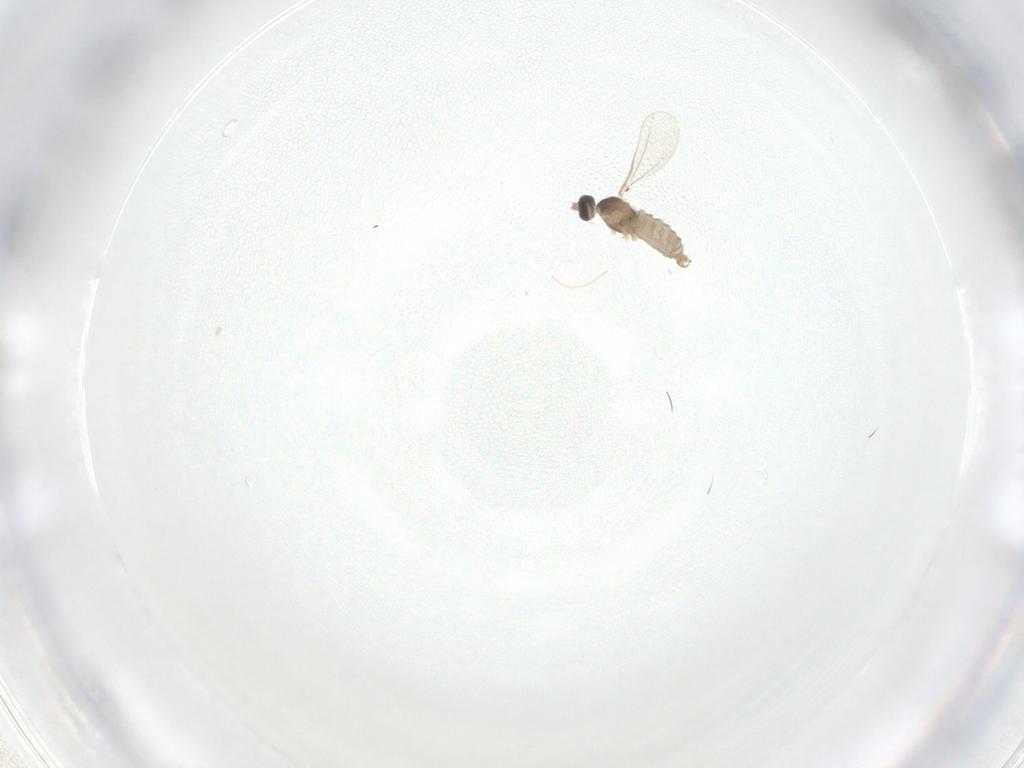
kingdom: Animalia
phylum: Arthropoda
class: Insecta
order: Diptera
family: Cecidomyiidae
